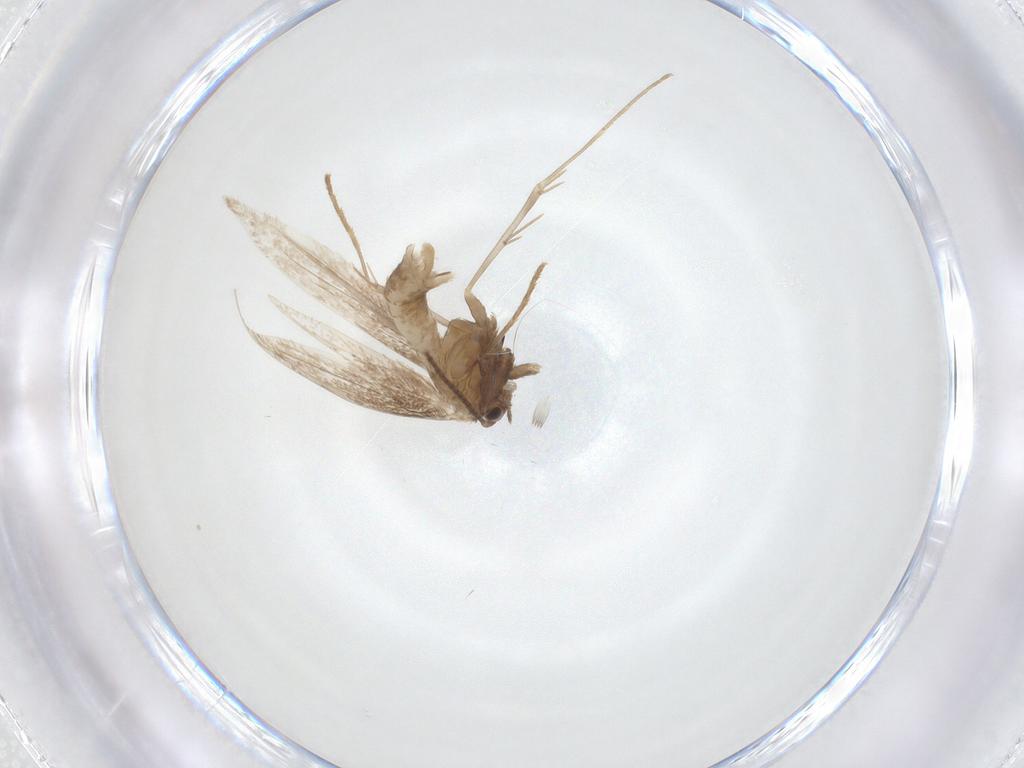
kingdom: Animalia
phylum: Arthropoda
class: Insecta
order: Lepidoptera
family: Gracillariidae
